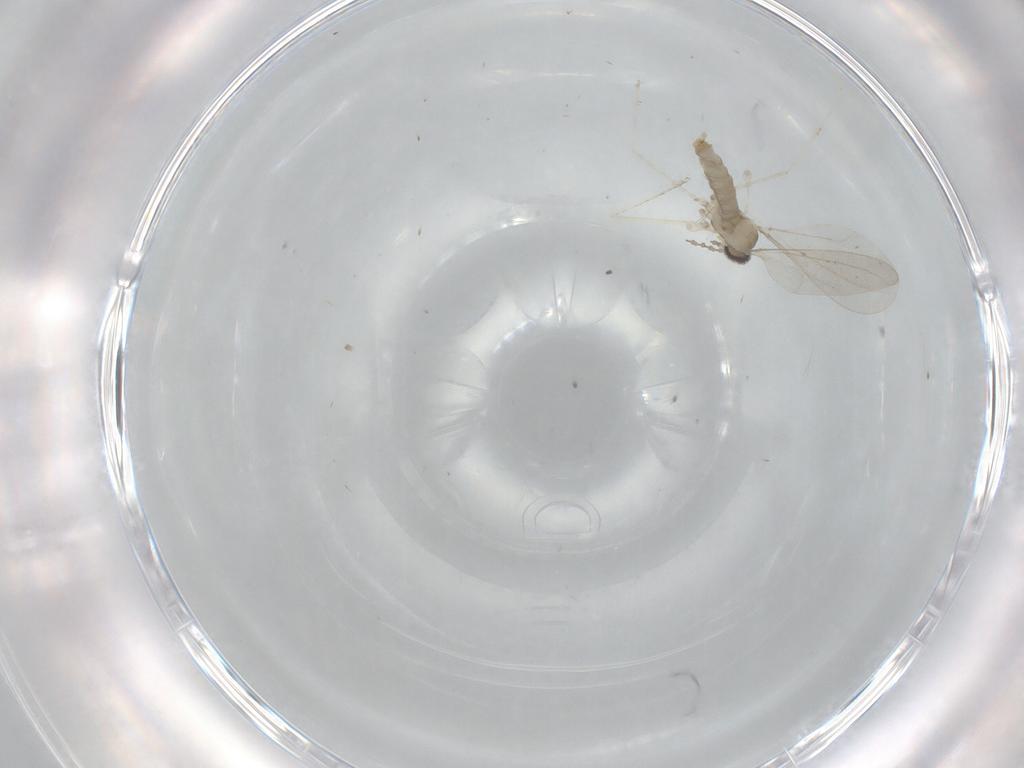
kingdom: Animalia
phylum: Arthropoda
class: Insecta
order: Diptera
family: Cecidomyiidae
